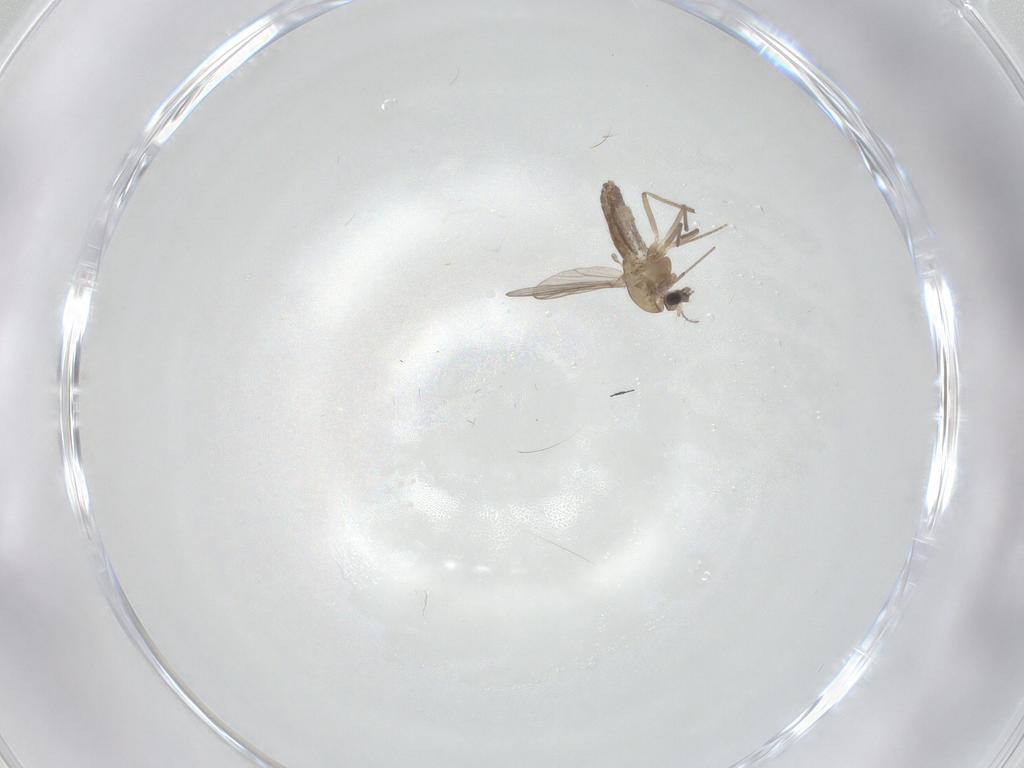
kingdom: Animalia
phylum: Arthropoda
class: Insecta
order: Diptera
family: Chironomidae
